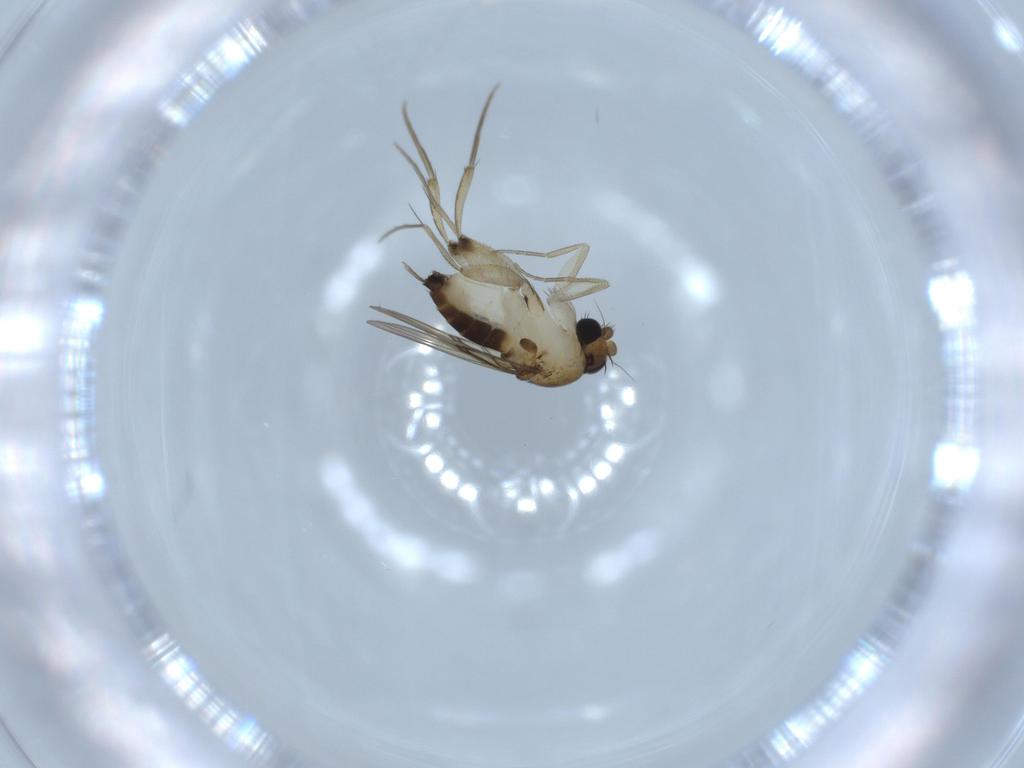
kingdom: Animalia
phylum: Arthropoda
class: Insecta
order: Diptera
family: Phoridae
